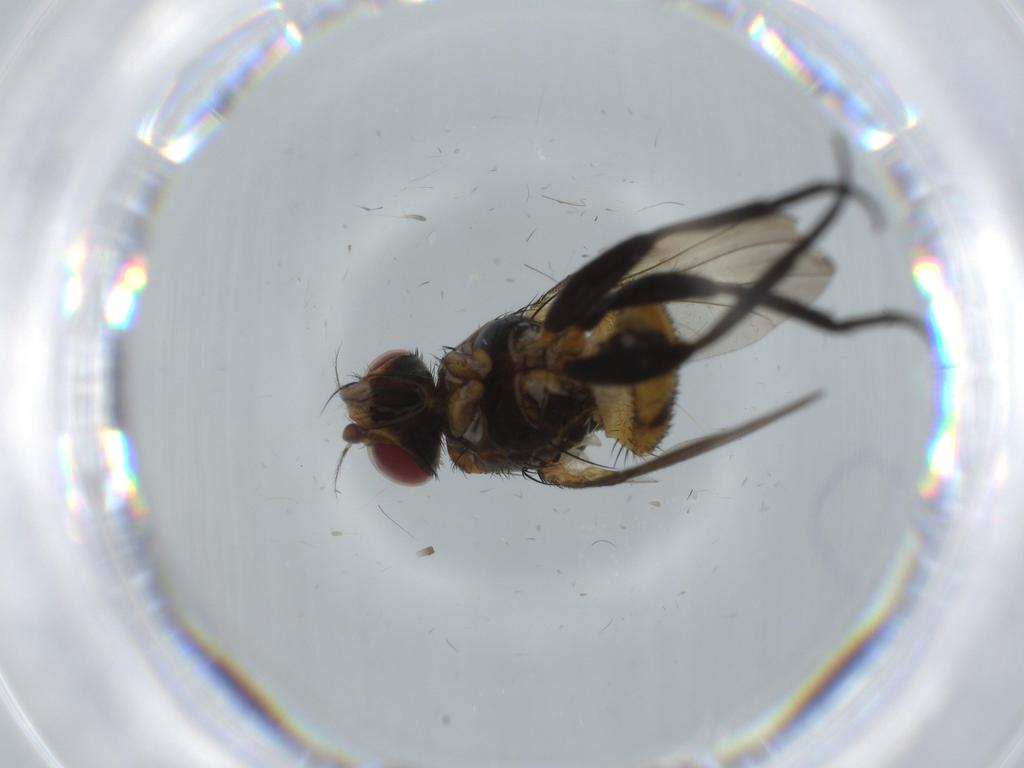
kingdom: Animalia
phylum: Arthropoda
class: Insecta
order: Diptera
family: Anthomyiidae
